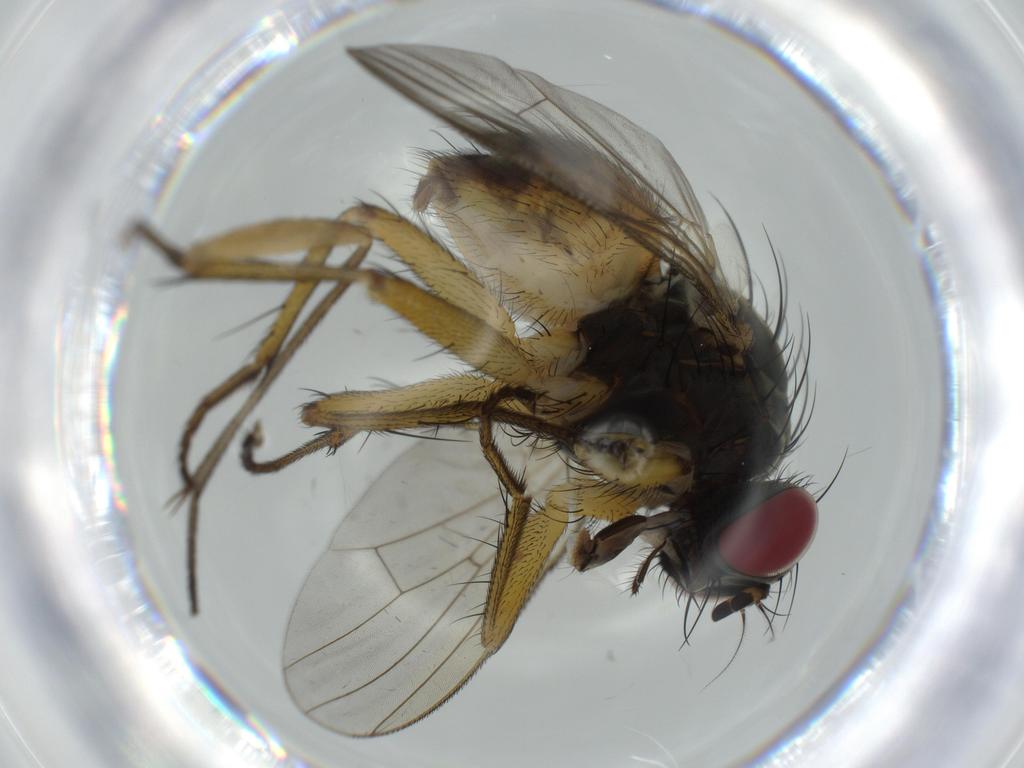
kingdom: Animalia
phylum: Arthropoda
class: Insecta
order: Diptera
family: Muscidae
